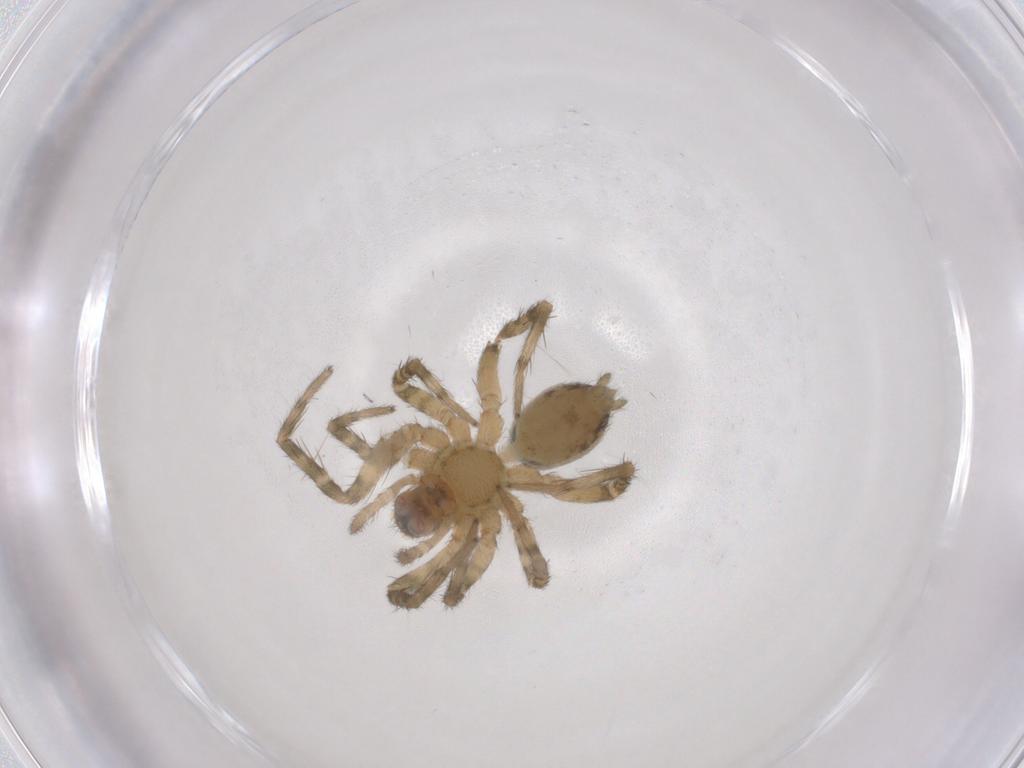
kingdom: Animalia
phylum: Arthropoda
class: Arachnida
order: Araneae
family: Lycosidae
